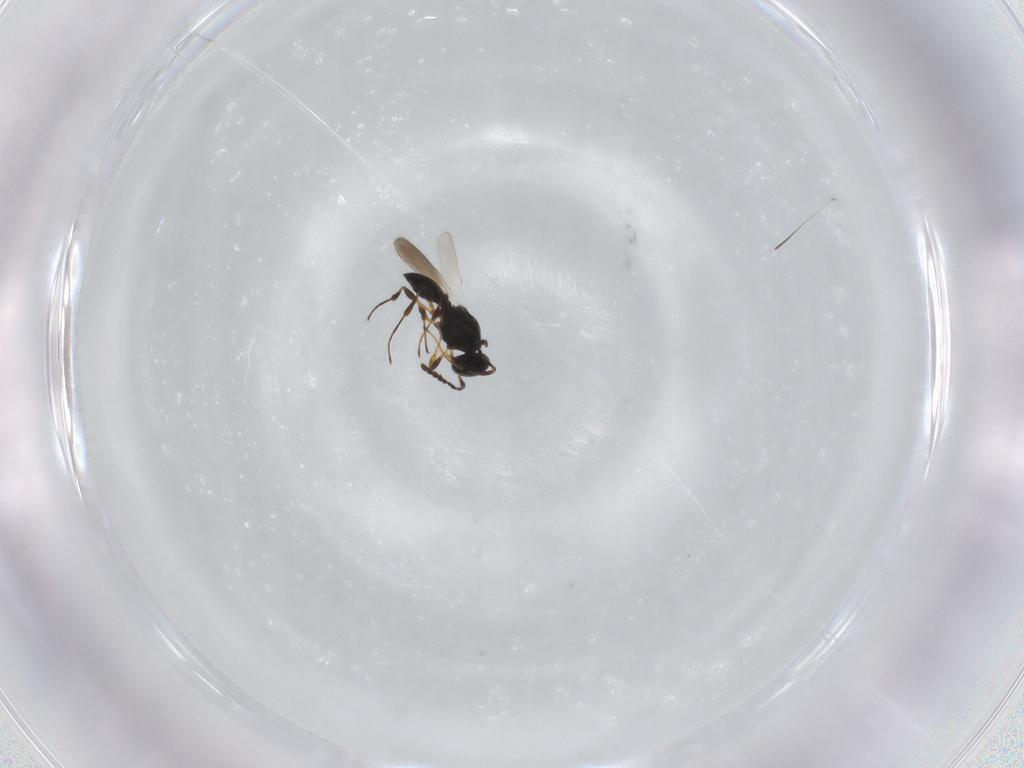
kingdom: Animalia
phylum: Arthropoda
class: Insecta
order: Hymenoptera
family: Platygastridae
